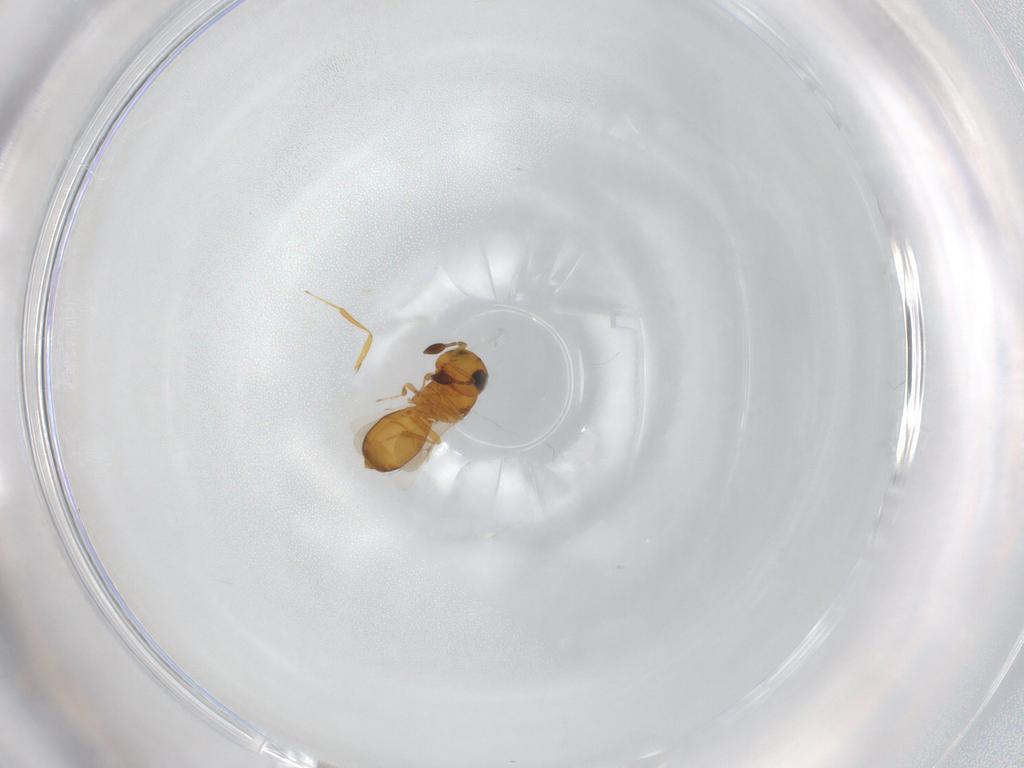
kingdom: Animalia
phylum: Arthropoda
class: Insecta
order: Hymenoptera
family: Scelionidae
